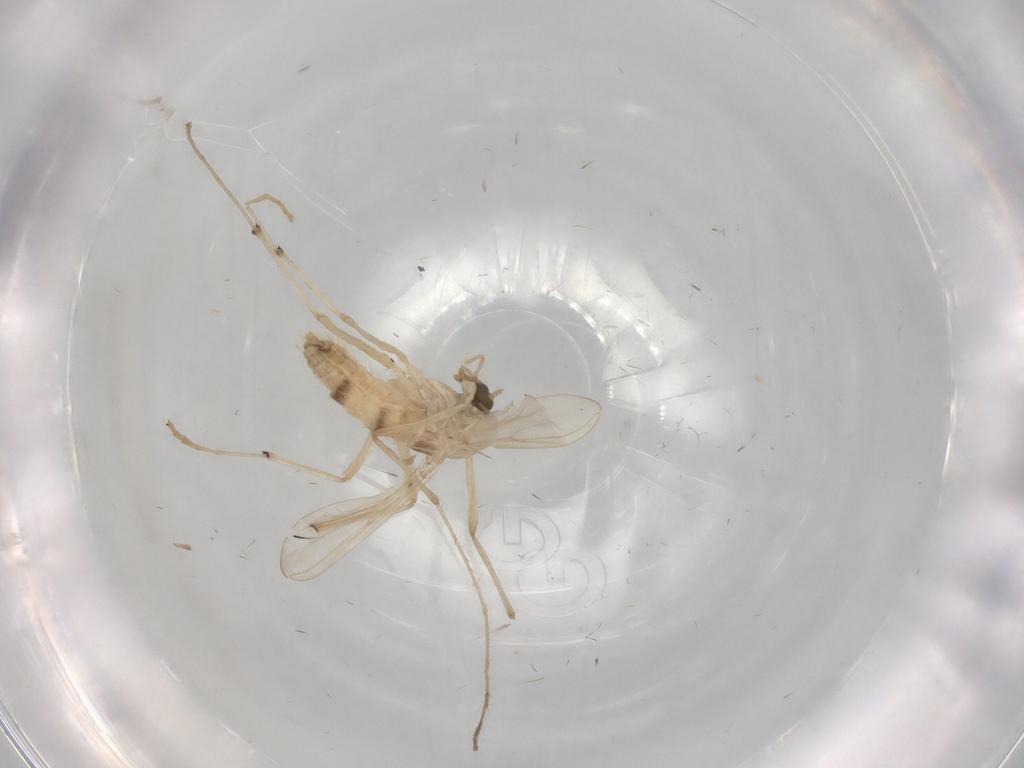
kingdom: Animalia
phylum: Arthropoda
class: Insecta
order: Diptera
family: Chironomidae
